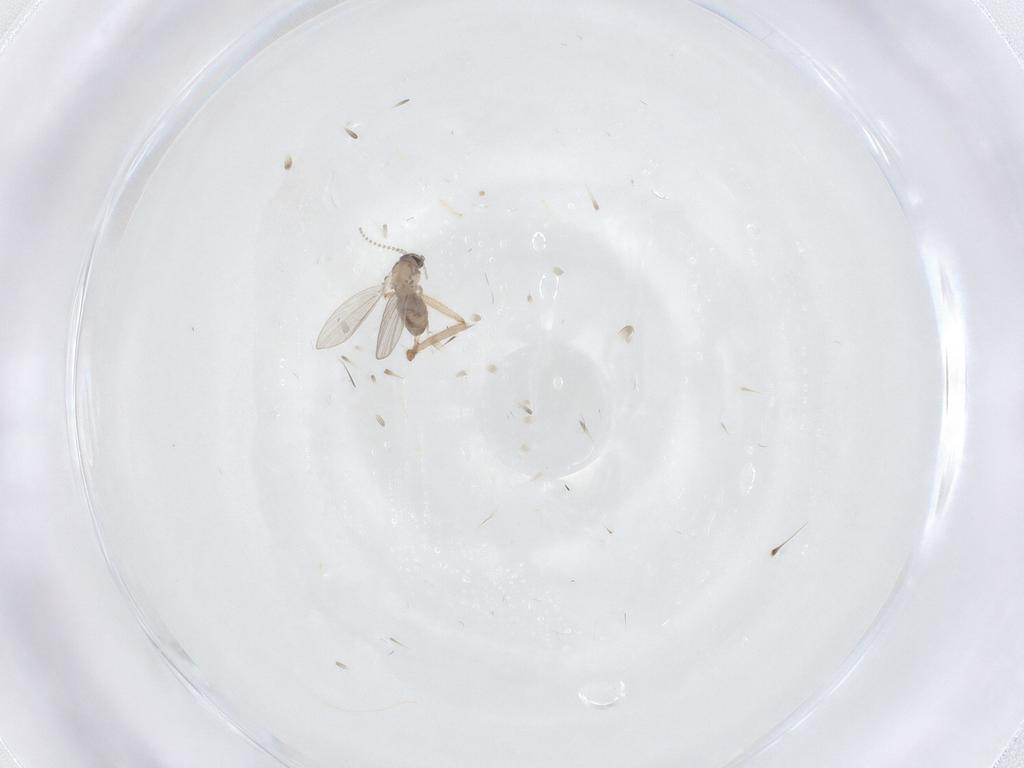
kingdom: Animalia
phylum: Arthropoda
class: Insecta
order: Diptera
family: Psychodidae
